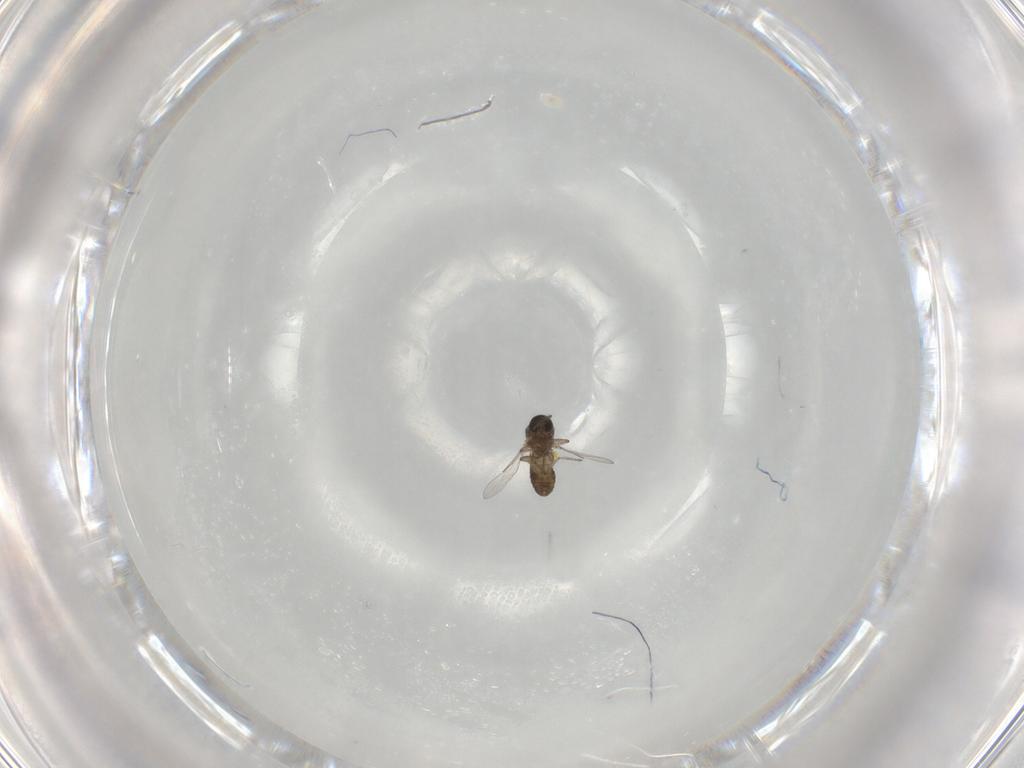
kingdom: Animalia
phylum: Arthropoda
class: Insecta
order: Diptera
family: Ceratopogonidae
